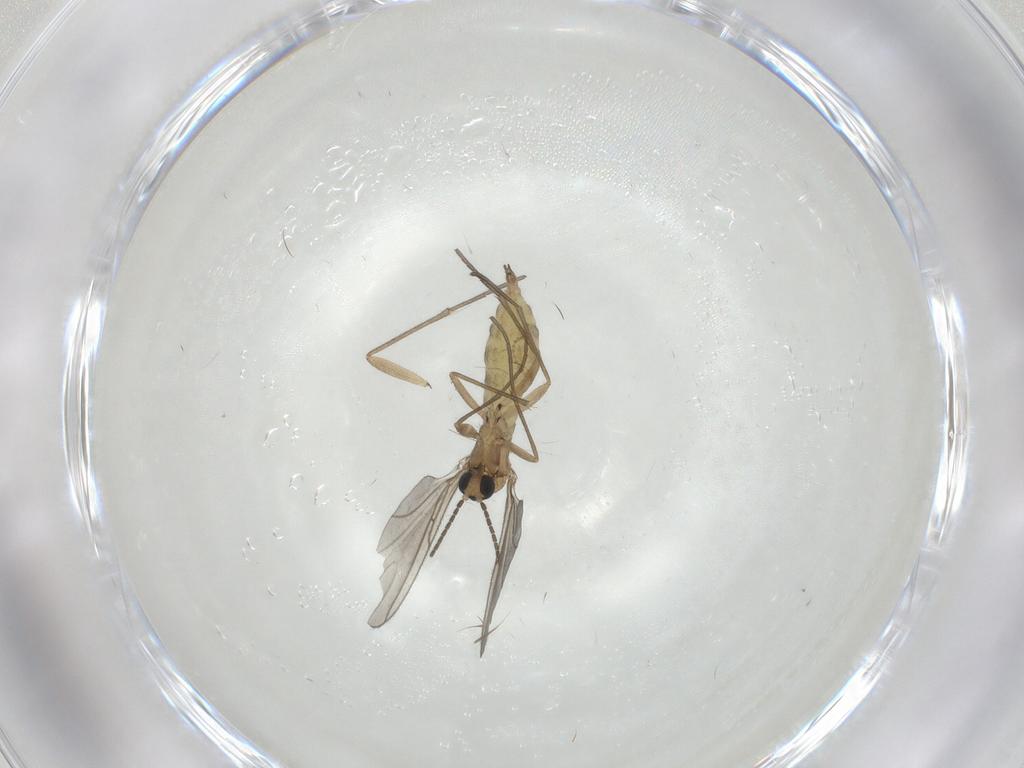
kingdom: Animalia
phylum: Arthropoda
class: Insecta
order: Diptera
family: Sciaridae
